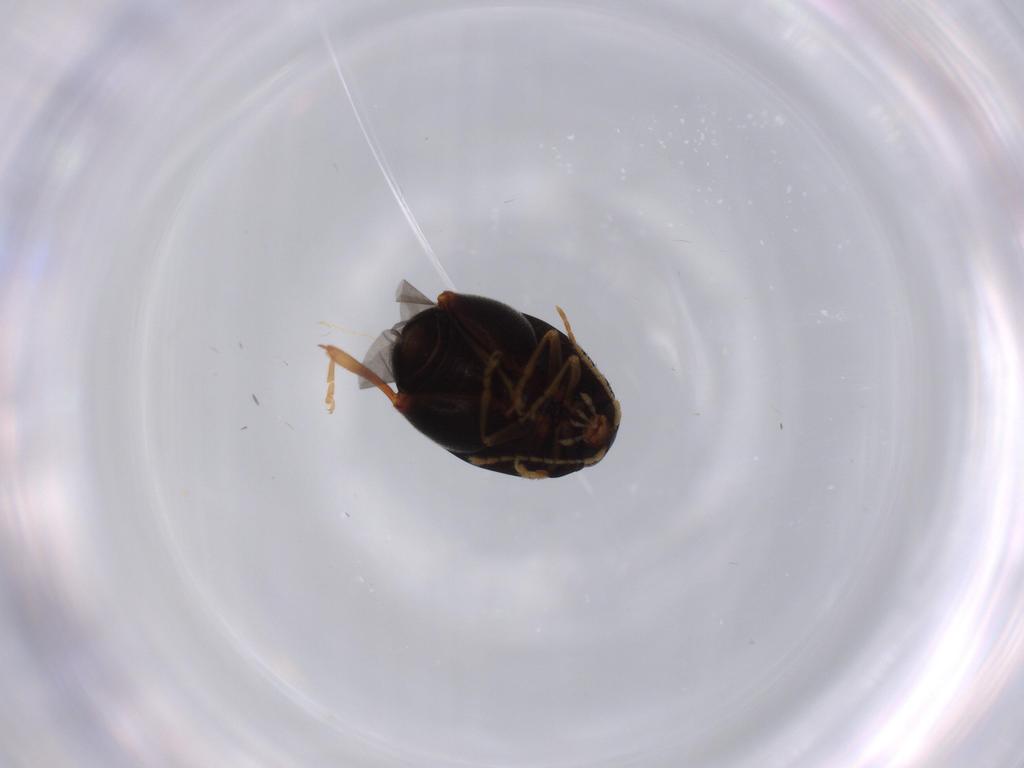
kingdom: Animalia
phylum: Arthropoda
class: Insecta
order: Coleoptera
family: Chrysomelidae
